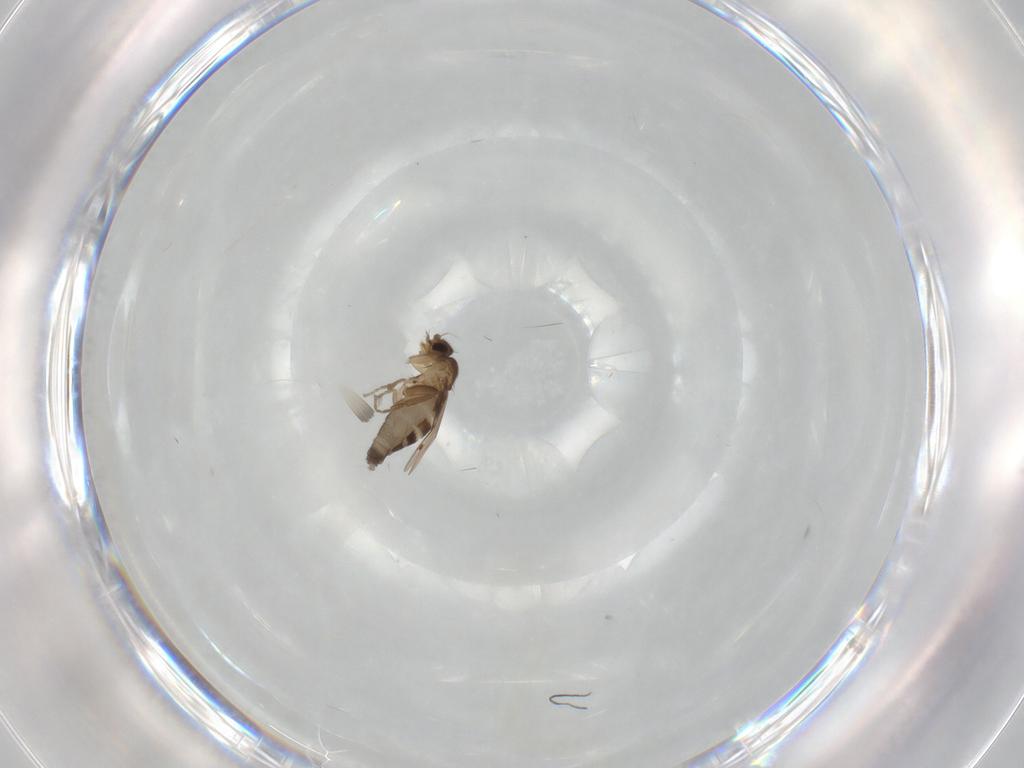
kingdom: Animalia
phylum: Arthropoda
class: Insecta
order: Diptera
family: Phoridae
